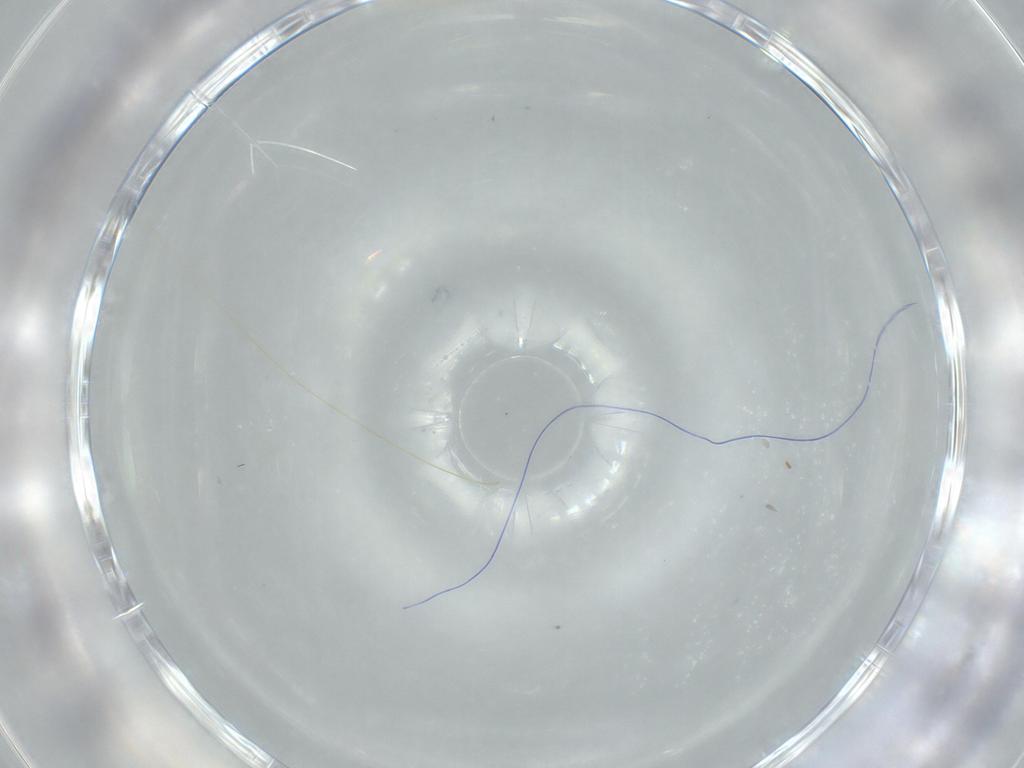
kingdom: Animalia
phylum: Arthropoda
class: Insecta
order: Diptera
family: Cecidomyiidae
